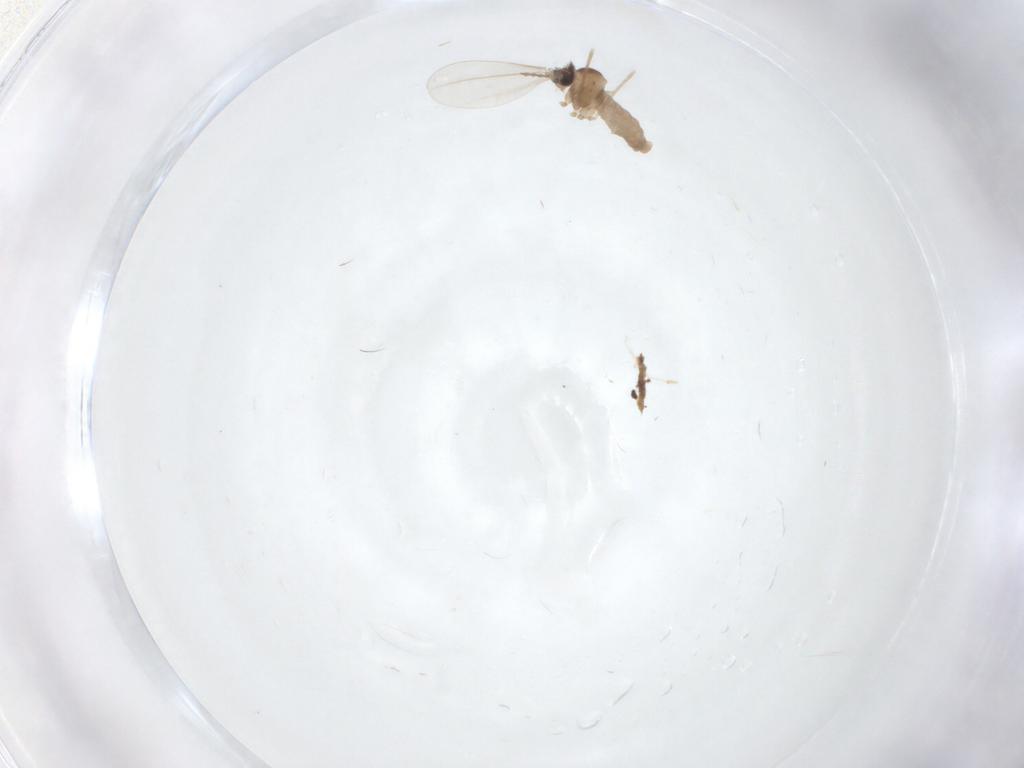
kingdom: Animalia
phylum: Arthropoda
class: Insecta
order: Diptera
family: Cecidomyiidae
